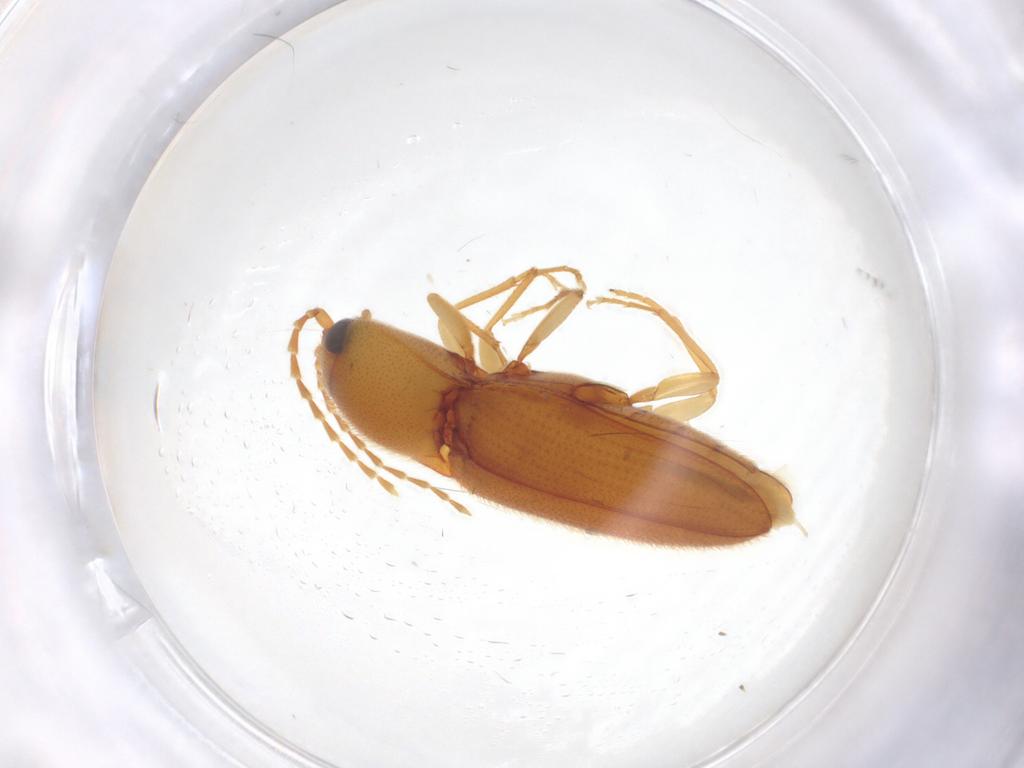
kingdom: Animalia
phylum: Arthropoda
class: Insecta
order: Coleoptera
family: Elateridae
